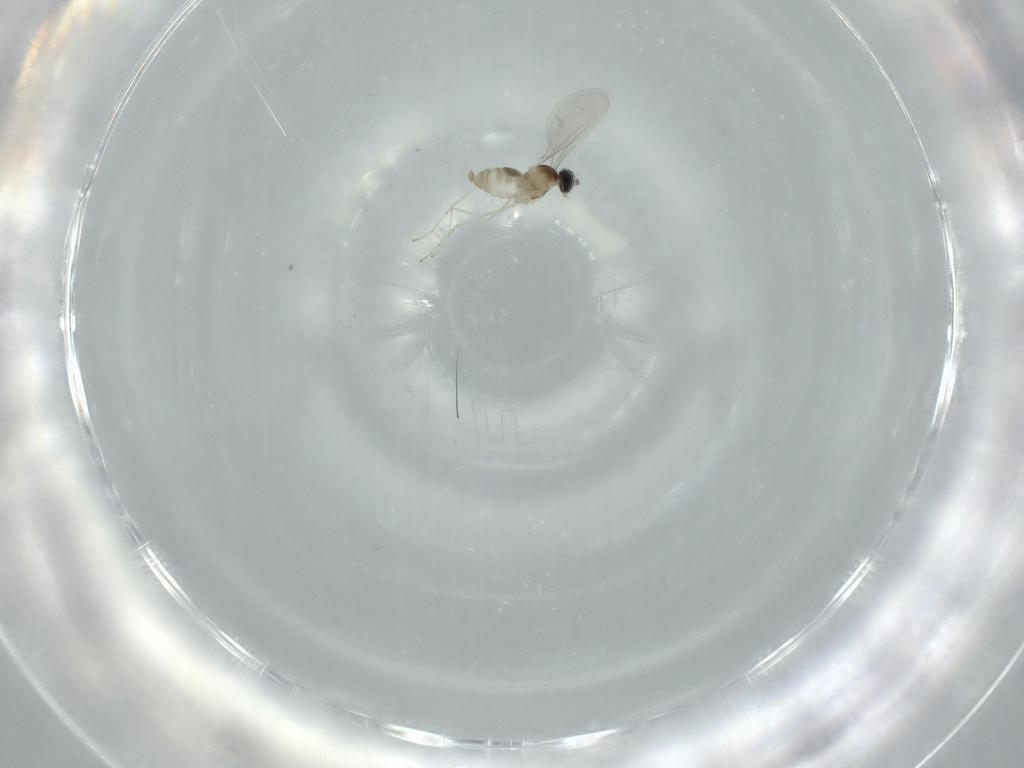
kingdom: Animalia
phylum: Arthropoda
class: Insecta
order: Diptera
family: Cecidomyiidae
